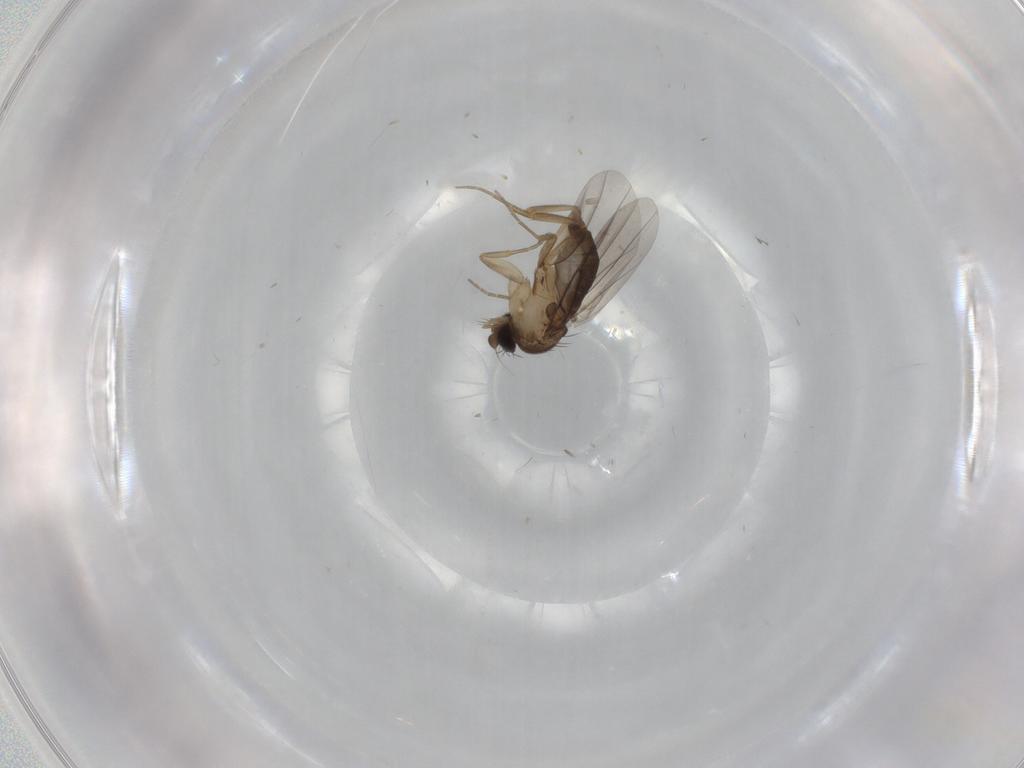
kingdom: Animalia
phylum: Arthropoda
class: Insecta
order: Diptera
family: Phoridae
